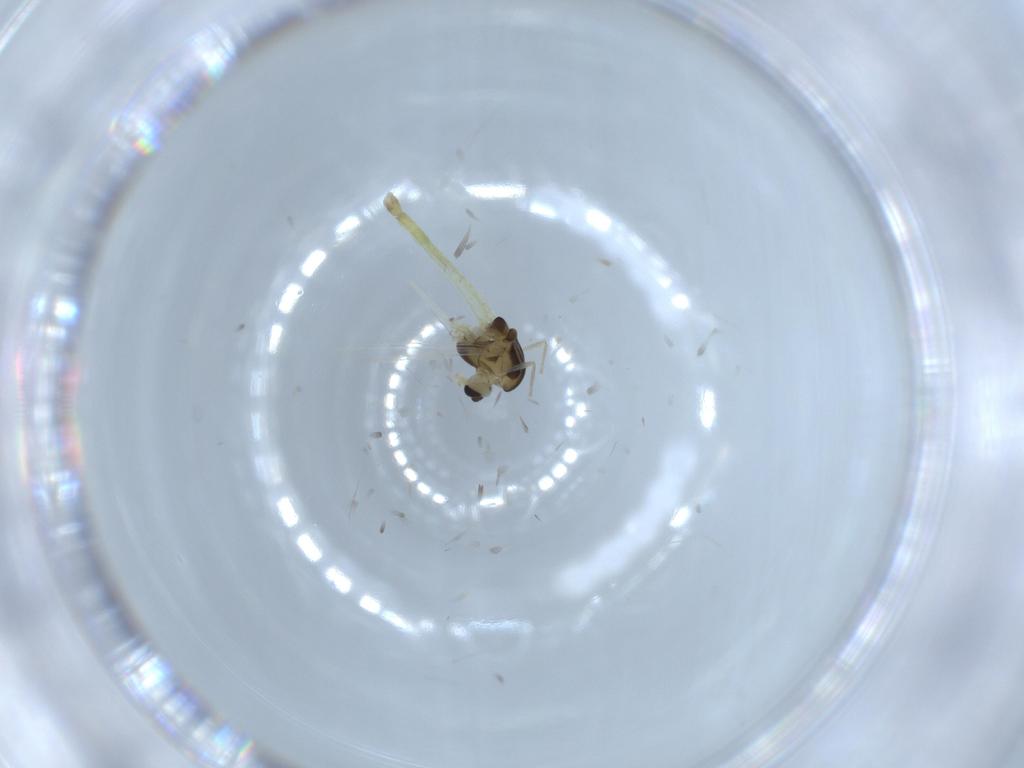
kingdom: Animalia
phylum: Arthropoda
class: Insecta
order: Diptera
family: Chironomidae
